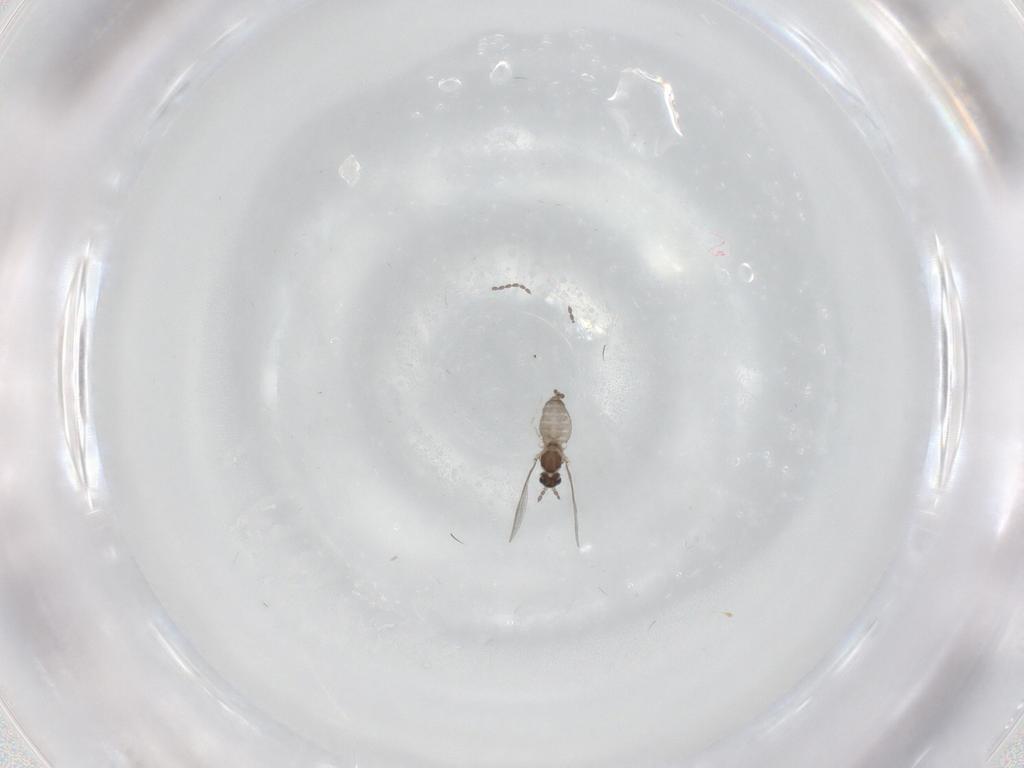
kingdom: Animalia
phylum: Arthropoda
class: Insecta
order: Diptera
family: Cecidomyiidae
